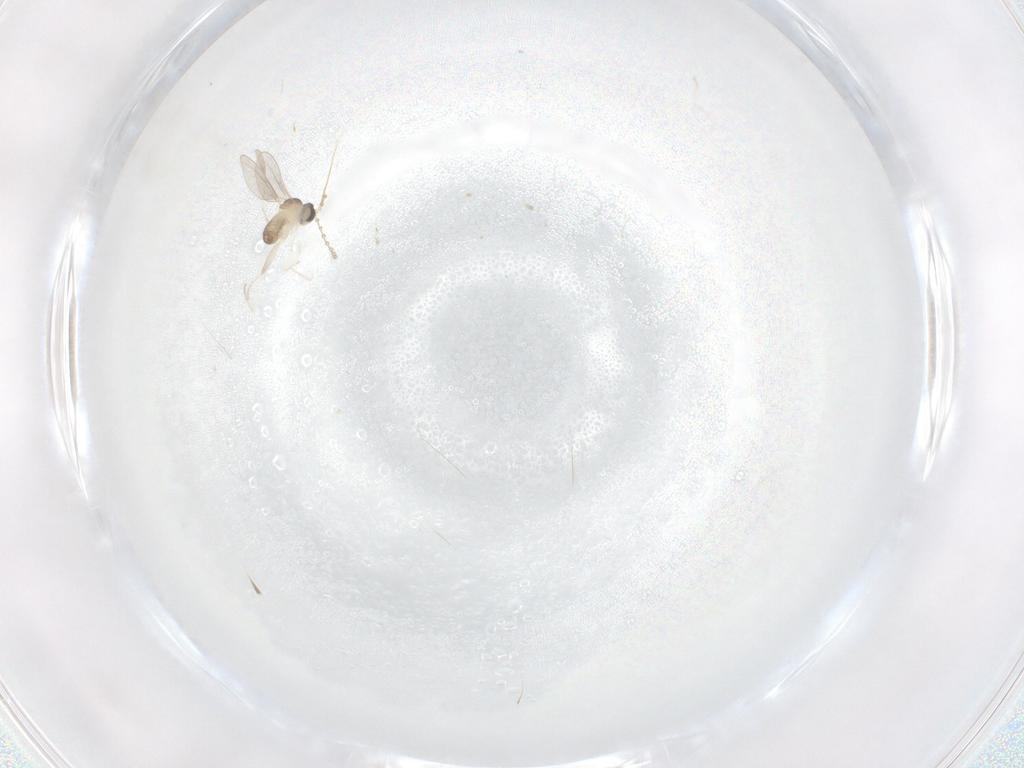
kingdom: Animalia
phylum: Arthropoda
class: Insecta
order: Diptera
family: Cecidomyiidae
